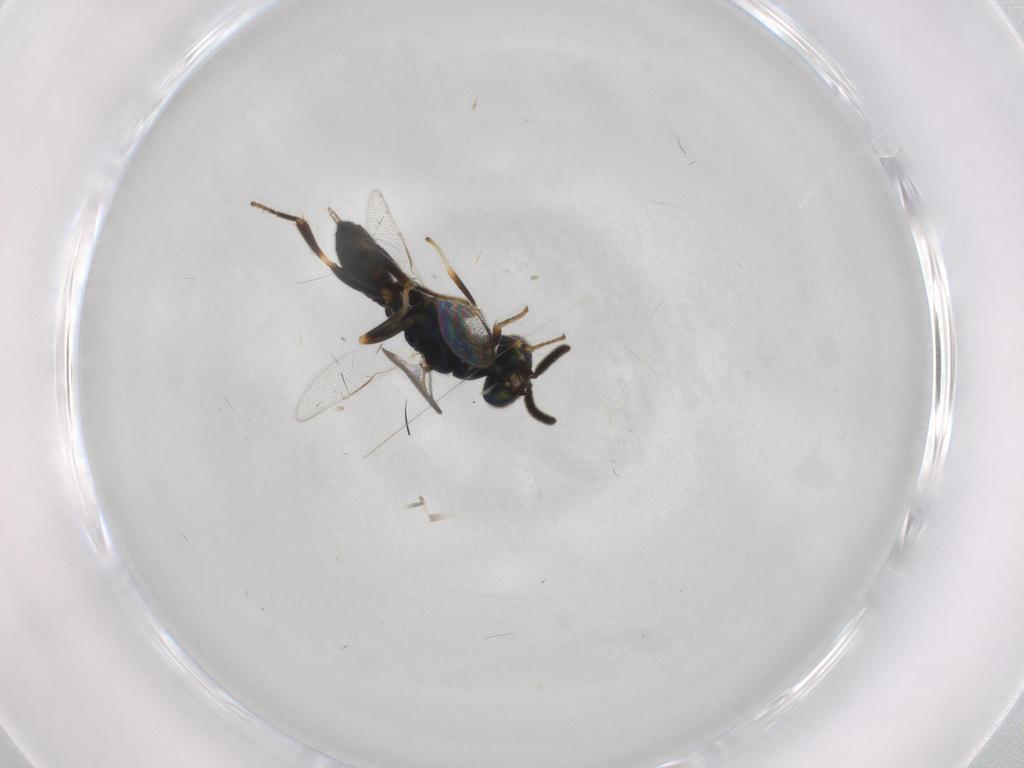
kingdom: Animalia
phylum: Arthropoda
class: Insecta
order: Hymenoptera
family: Cleonyminae
